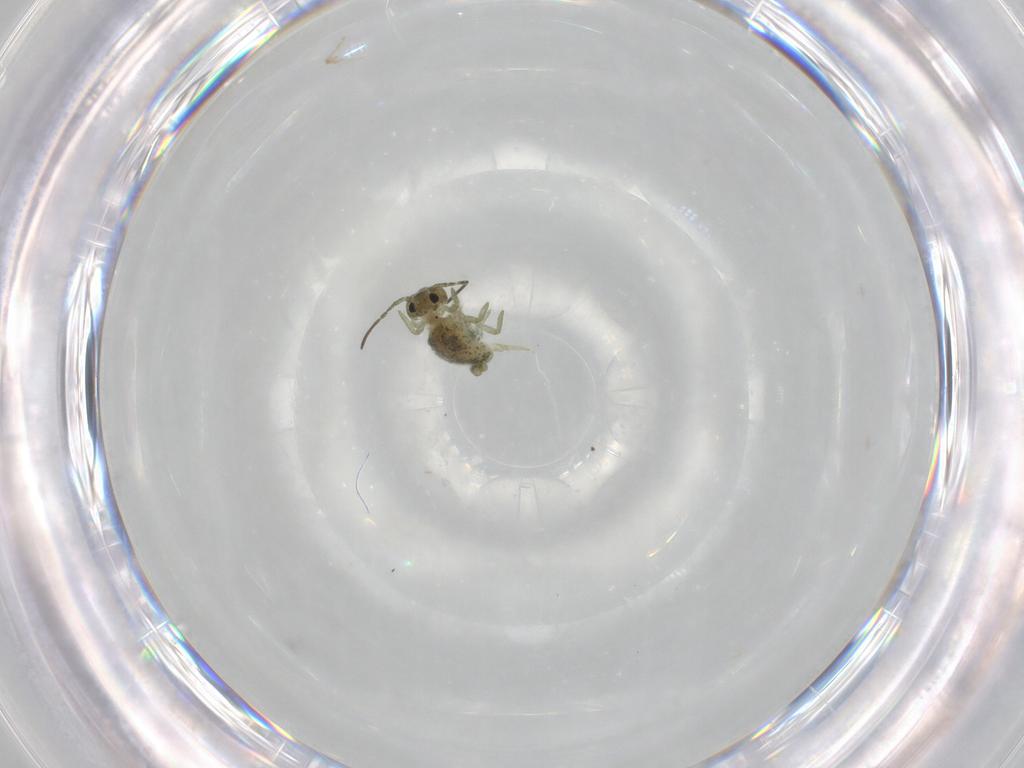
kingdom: Animalia
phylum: Arthropoda
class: Collembola
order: Symphypleona
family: Sminthuridae
